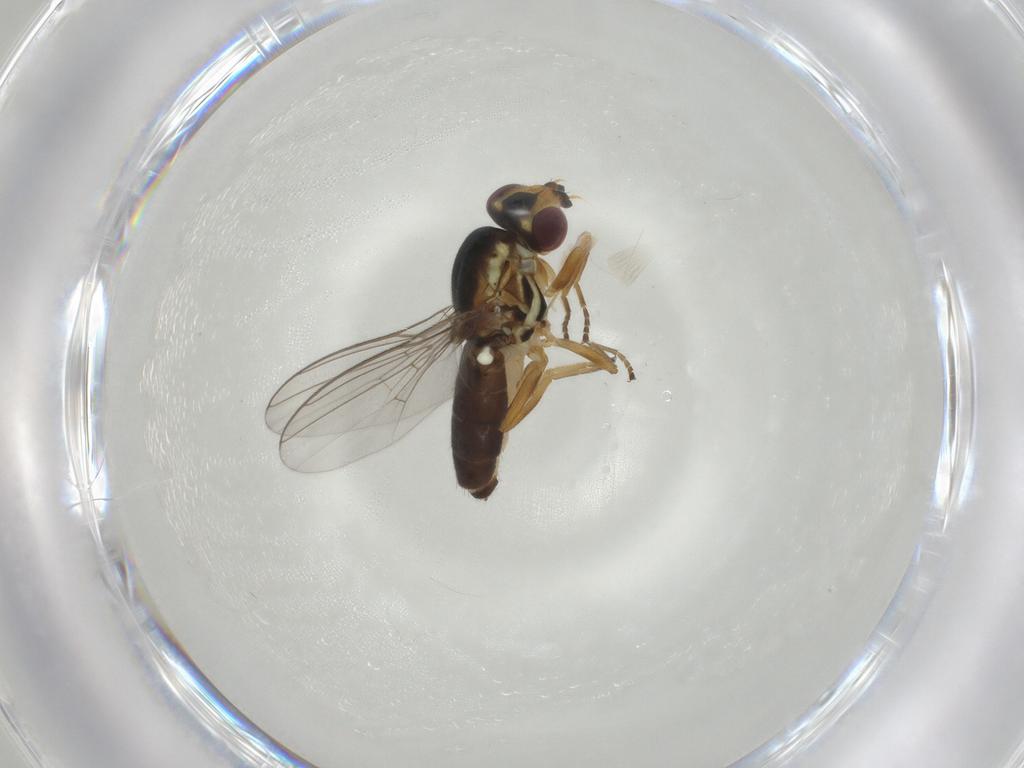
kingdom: Animalia
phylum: Arthropoda
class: Insecta
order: Diptera
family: Chloropidae
